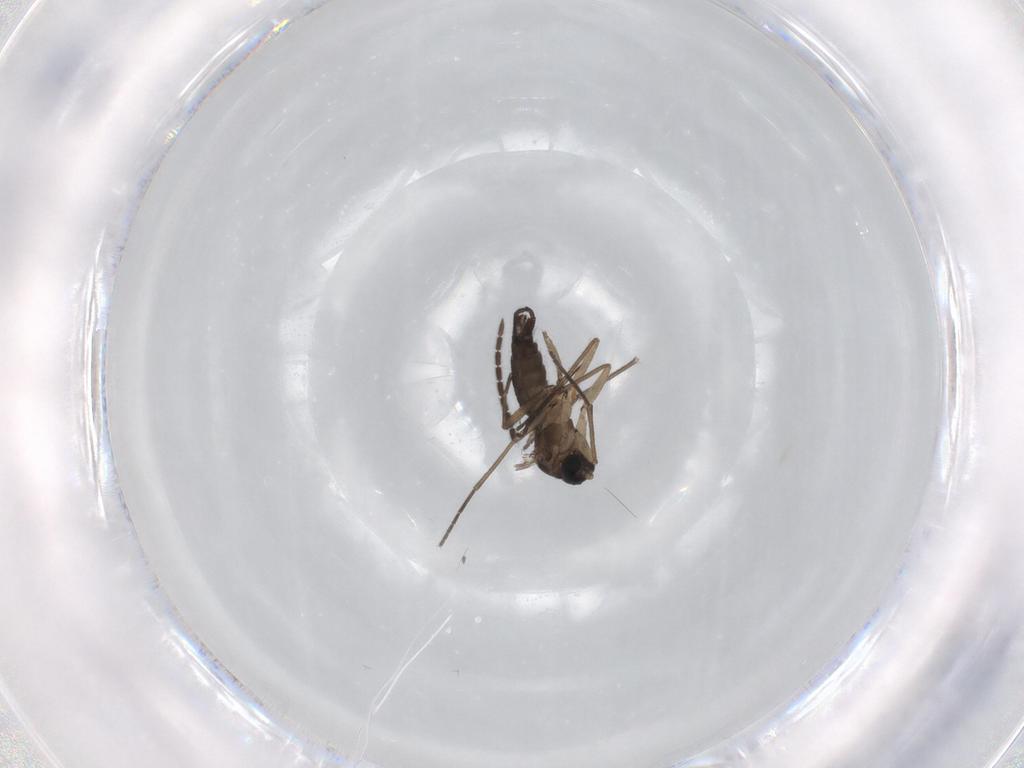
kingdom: Animalia
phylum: Arthropoda
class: Insecta
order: Diptera
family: Sciaridae
